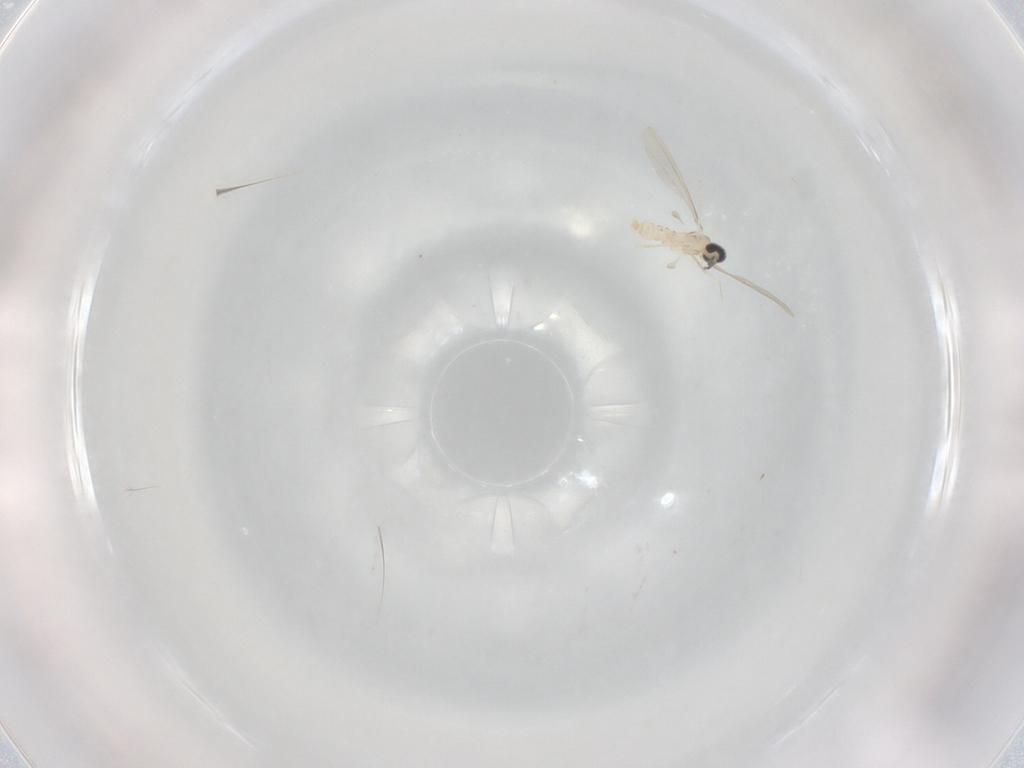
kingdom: Animalia
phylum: Arthropoda
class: Insecta
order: Diptera
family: Cecidomyiidae
